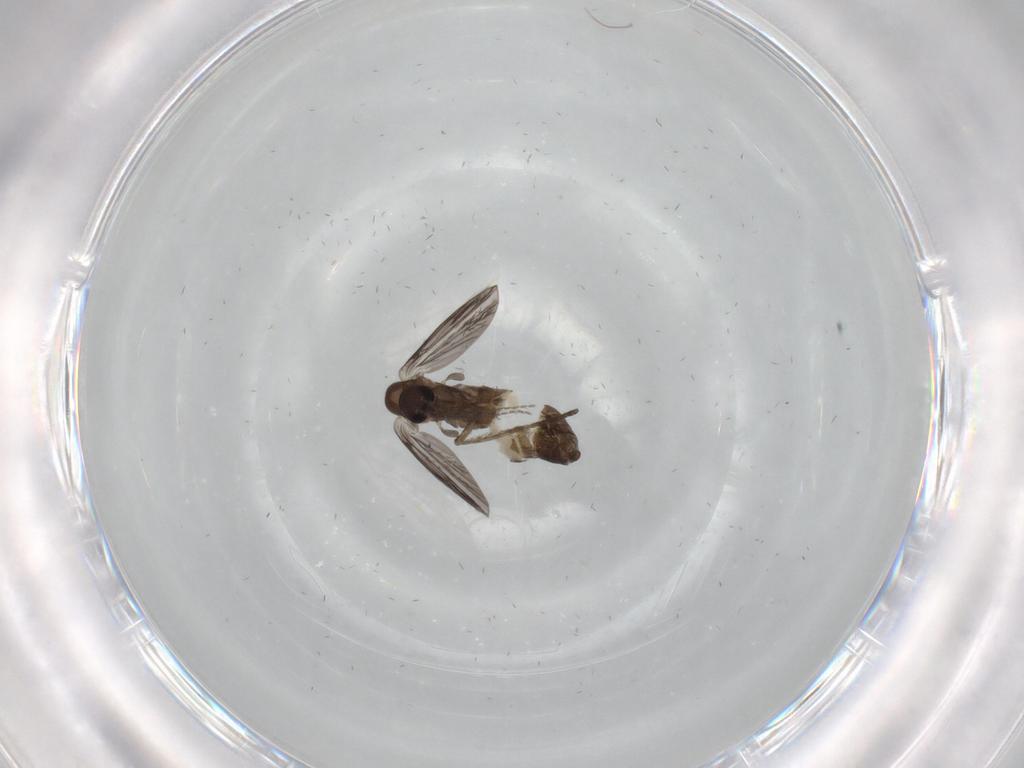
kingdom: Animalia
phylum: Arthropoda
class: Insecta
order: Diptera
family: Psychodidae
